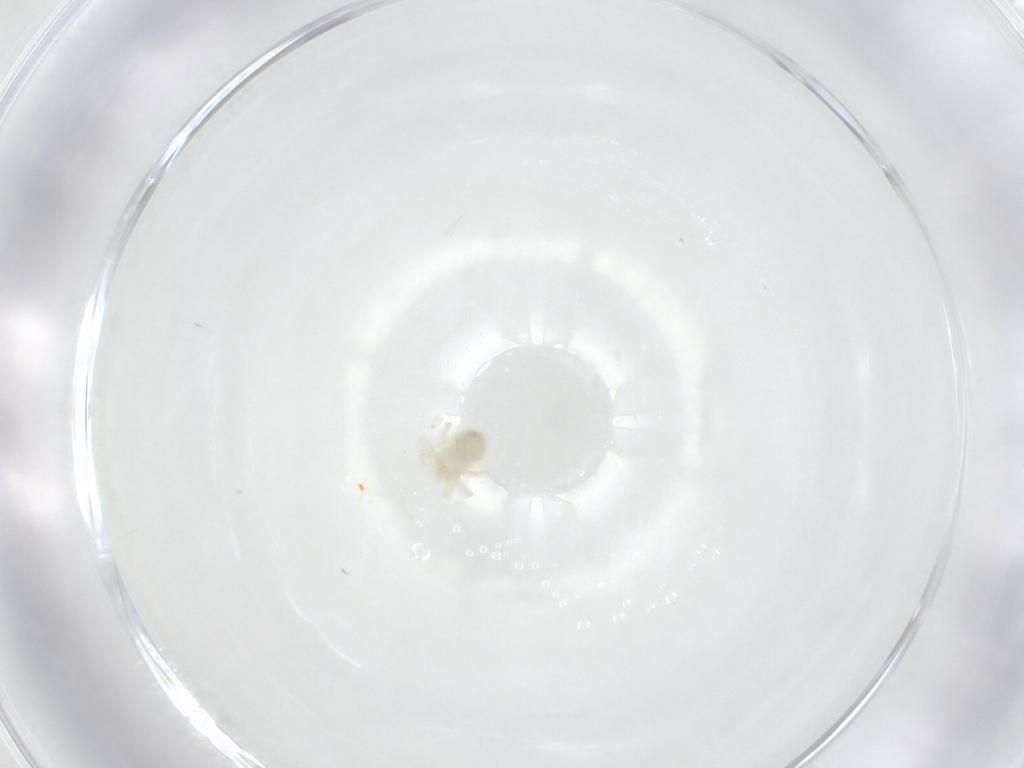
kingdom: Animalia
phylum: Arthropoda
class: Arachnida
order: Trombidiformes
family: Anystidae
